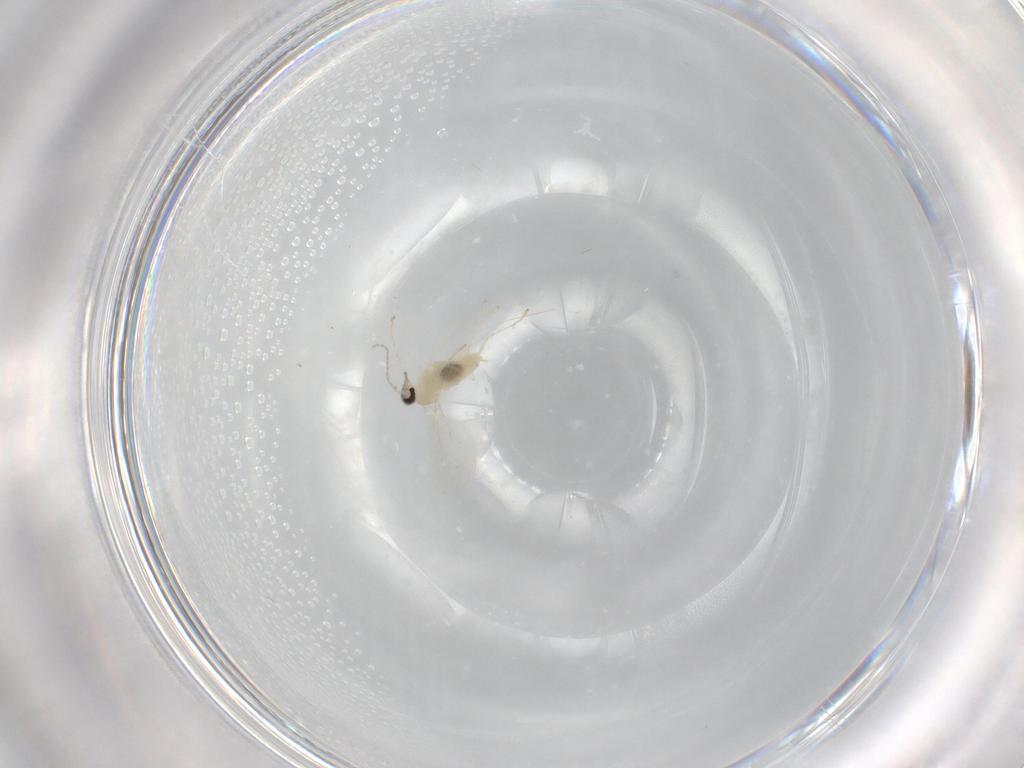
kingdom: Animalia
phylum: Arthropoda
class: Insecta
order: Diptera
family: Cecidomyiidae
